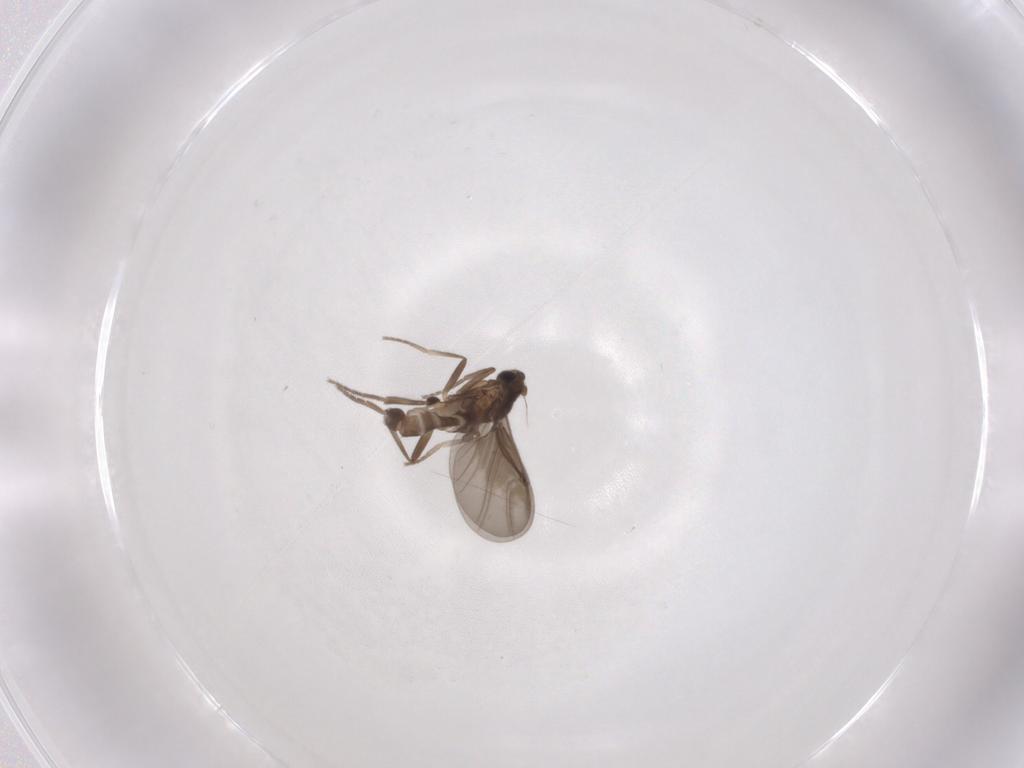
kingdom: Animalia
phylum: Arthropoda
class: Insecta
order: Diptera
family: Phoridae
